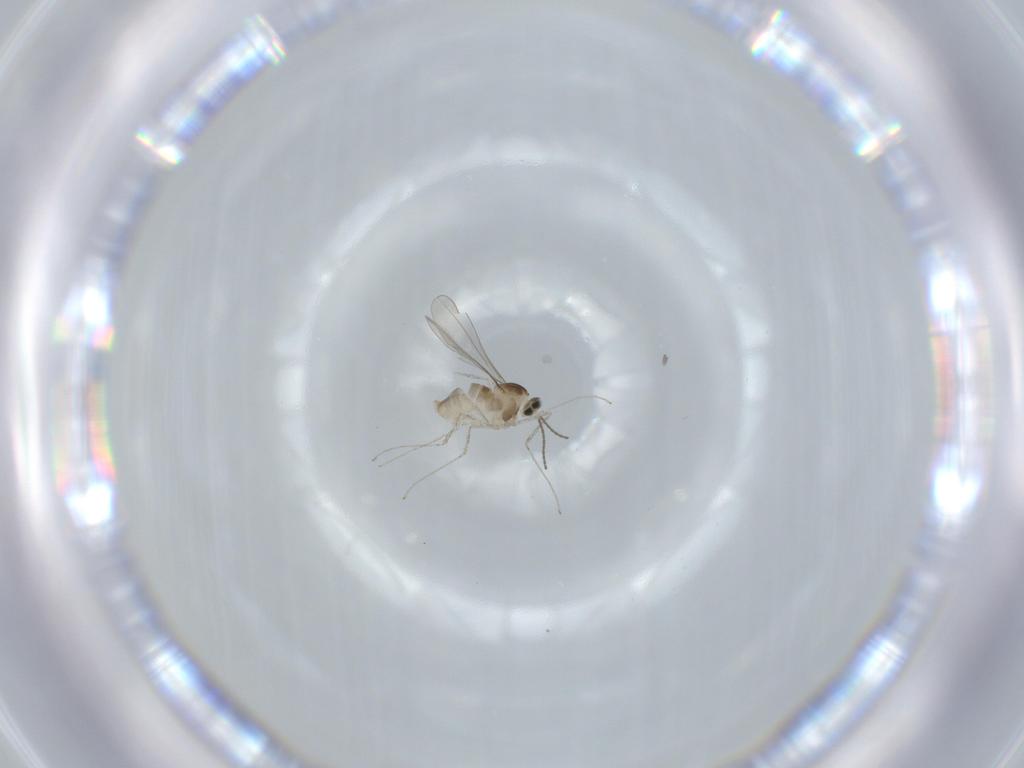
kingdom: Animalia
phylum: Arthropoda
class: Insecta
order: Diptera
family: Cecidomyiidae
